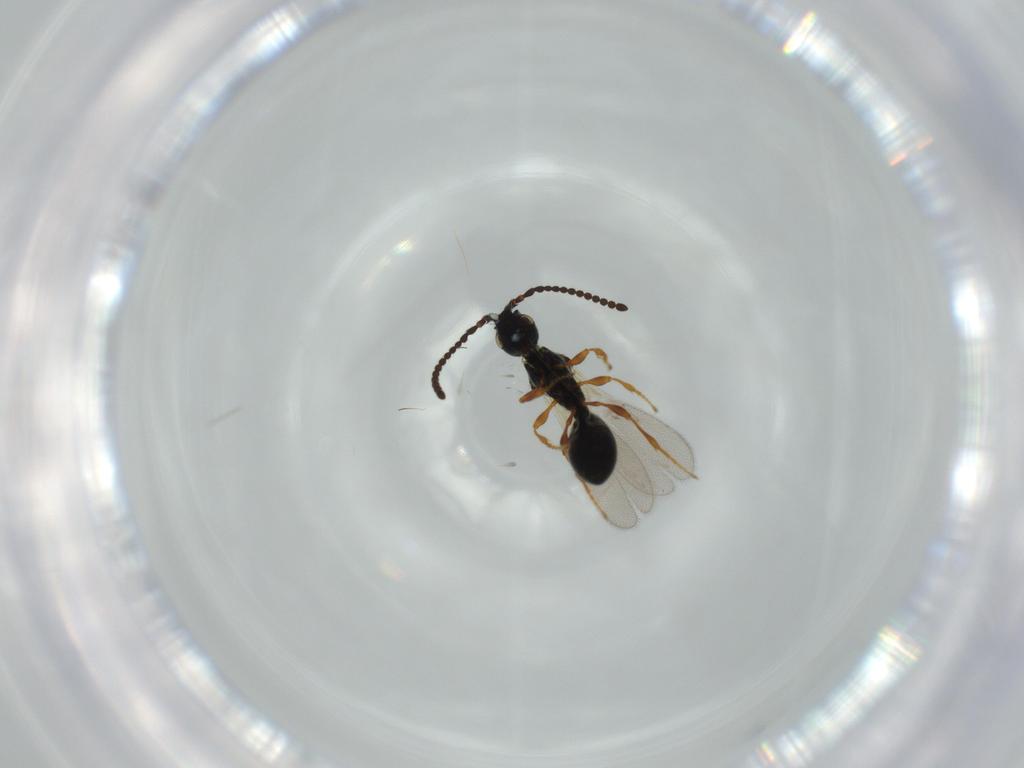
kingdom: Animalia
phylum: Arthropoda
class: Insecta
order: Hymenoptera
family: Diapriidae
